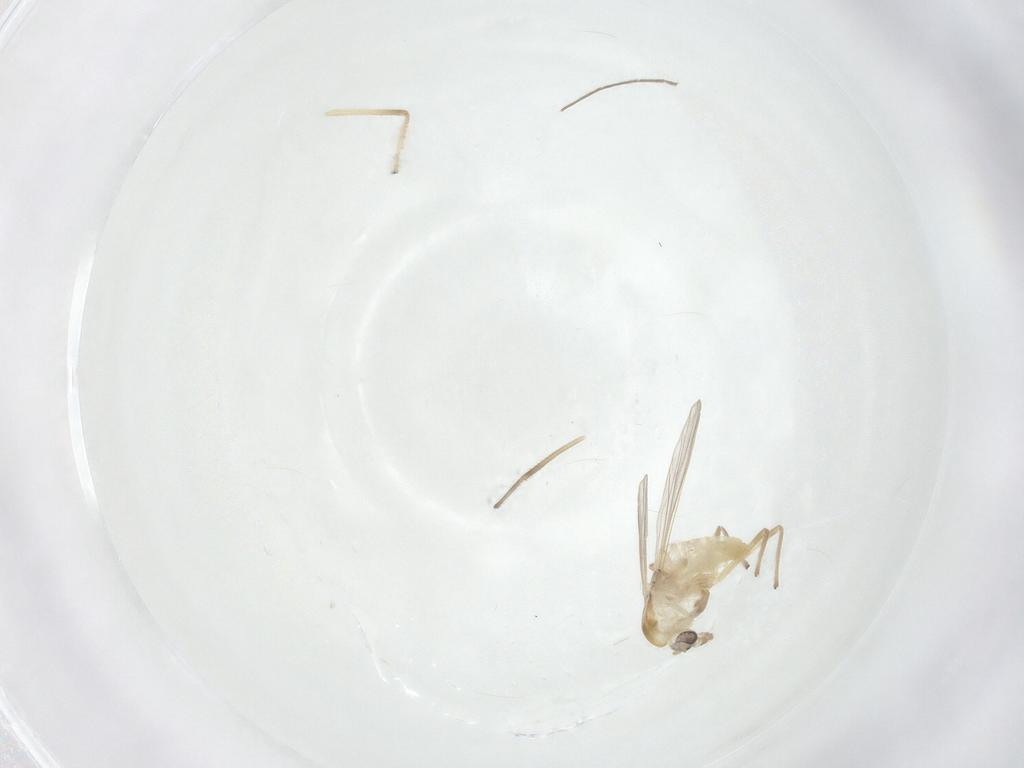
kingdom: Animalia
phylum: Arthropoda
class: Insecta
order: Diptera
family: Chironomidae
